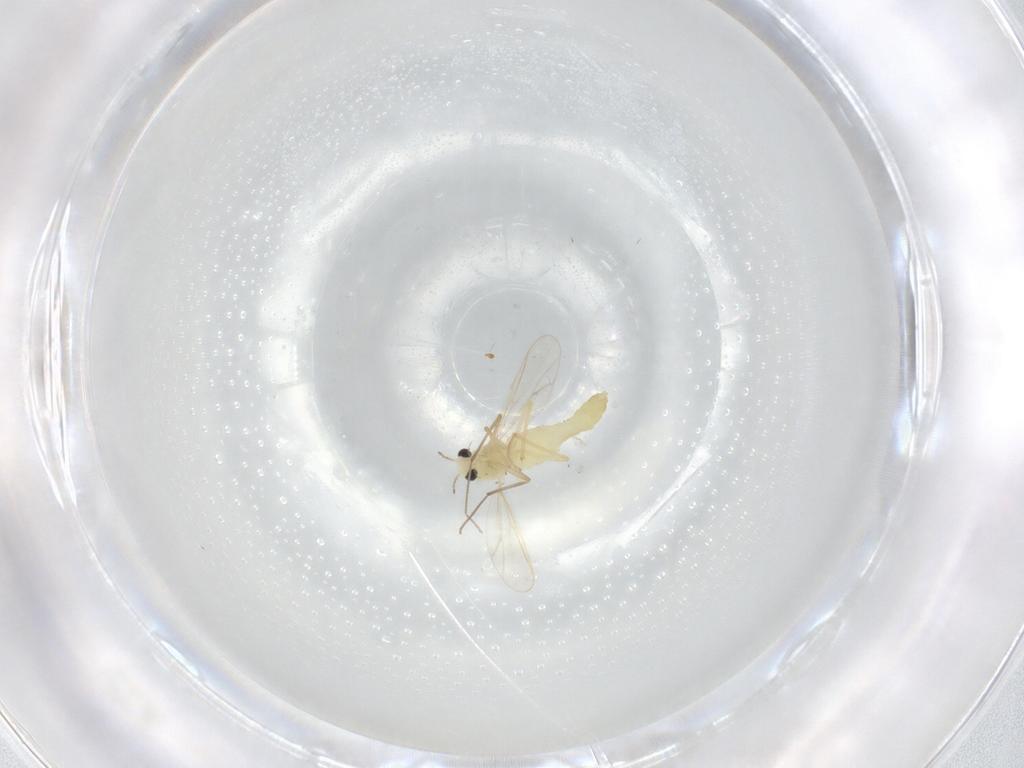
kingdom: Animalia
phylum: Arthropoda
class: Insecta
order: Diptera
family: Chironomidae
